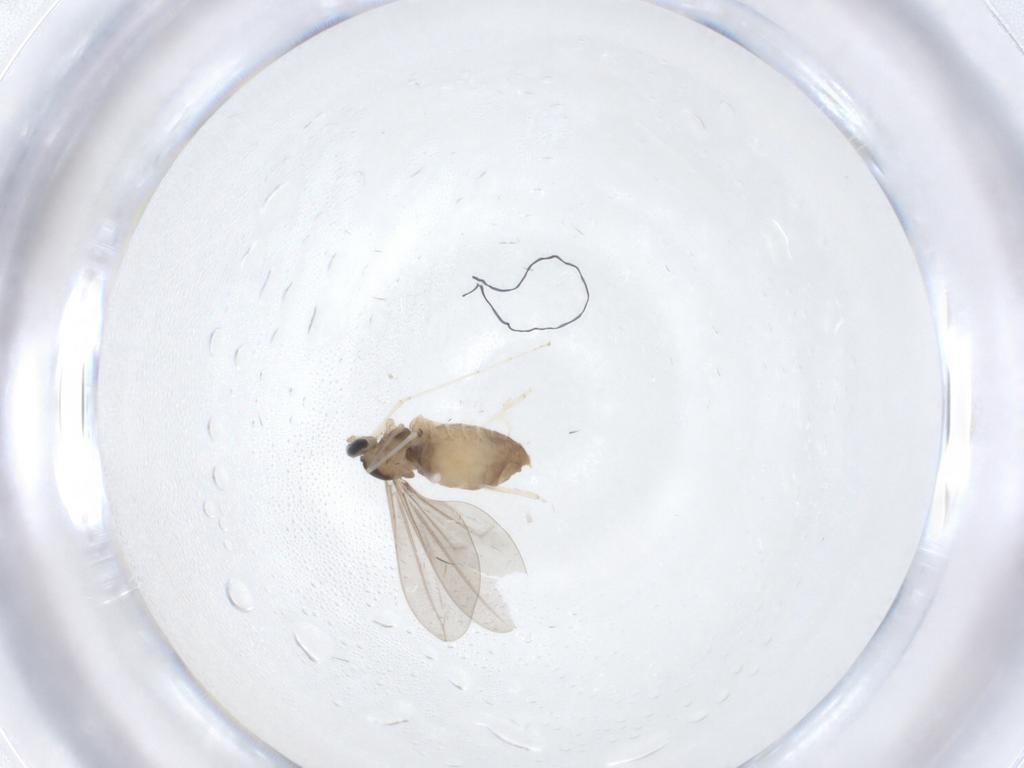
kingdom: Animalia
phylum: Arthropoda
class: Insecta
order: Diptera
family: Cecidomyiidae
